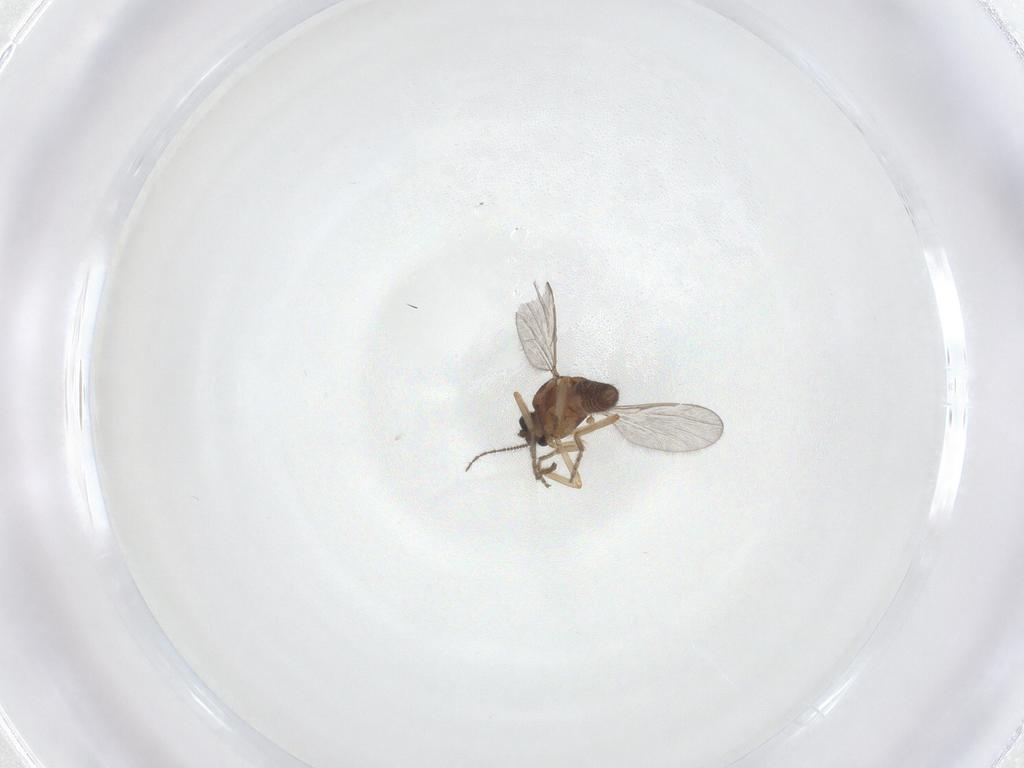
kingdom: Animalia
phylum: Arthropoda
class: Insecta
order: Diptera
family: Ceratopogonidae
